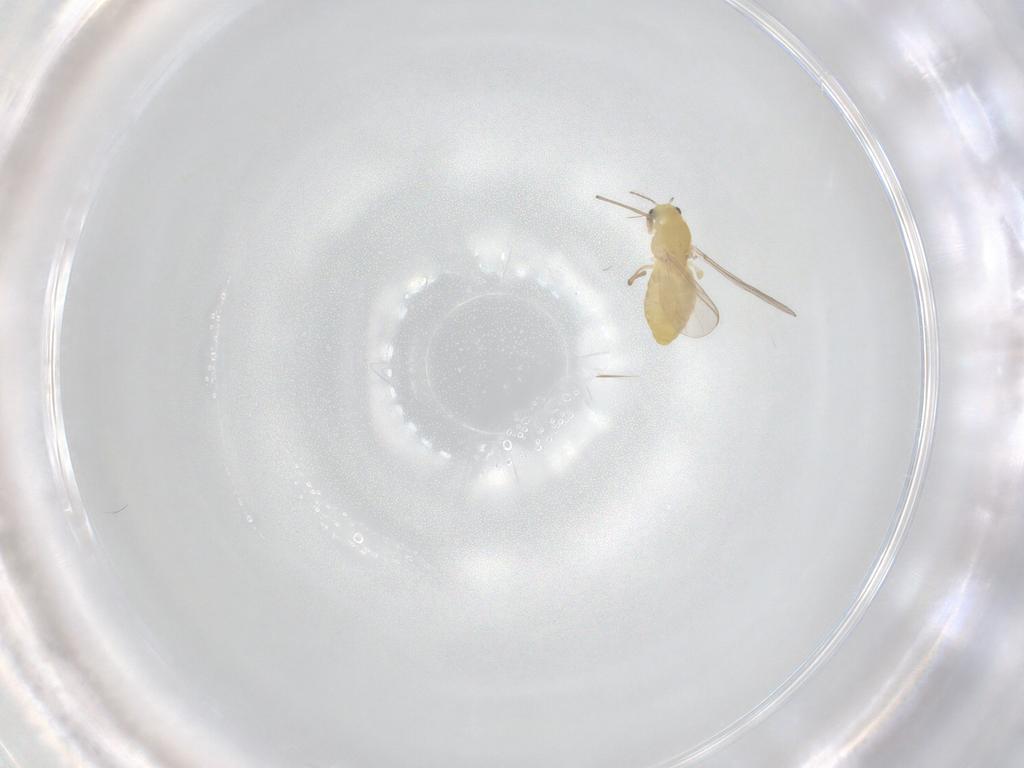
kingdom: Animalia
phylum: Arthropoda
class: Insecta
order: Diptera
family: Chironomidae
